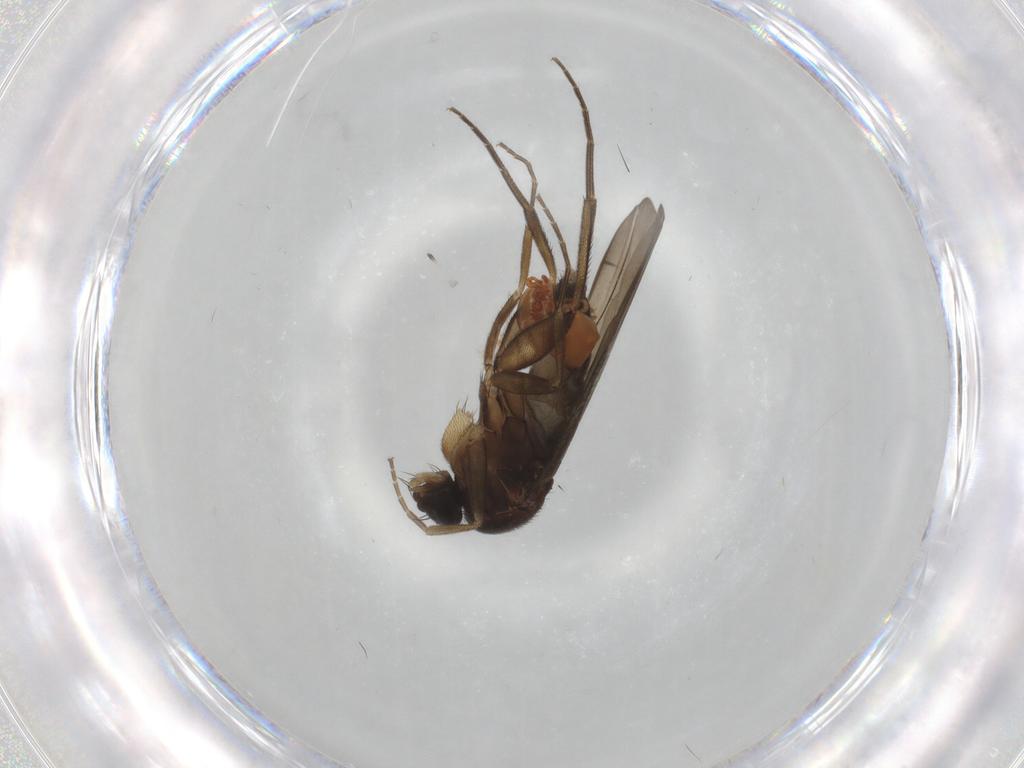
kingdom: Animalia
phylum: Arthropoda
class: Insecta
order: Diptera
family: Phoridae
